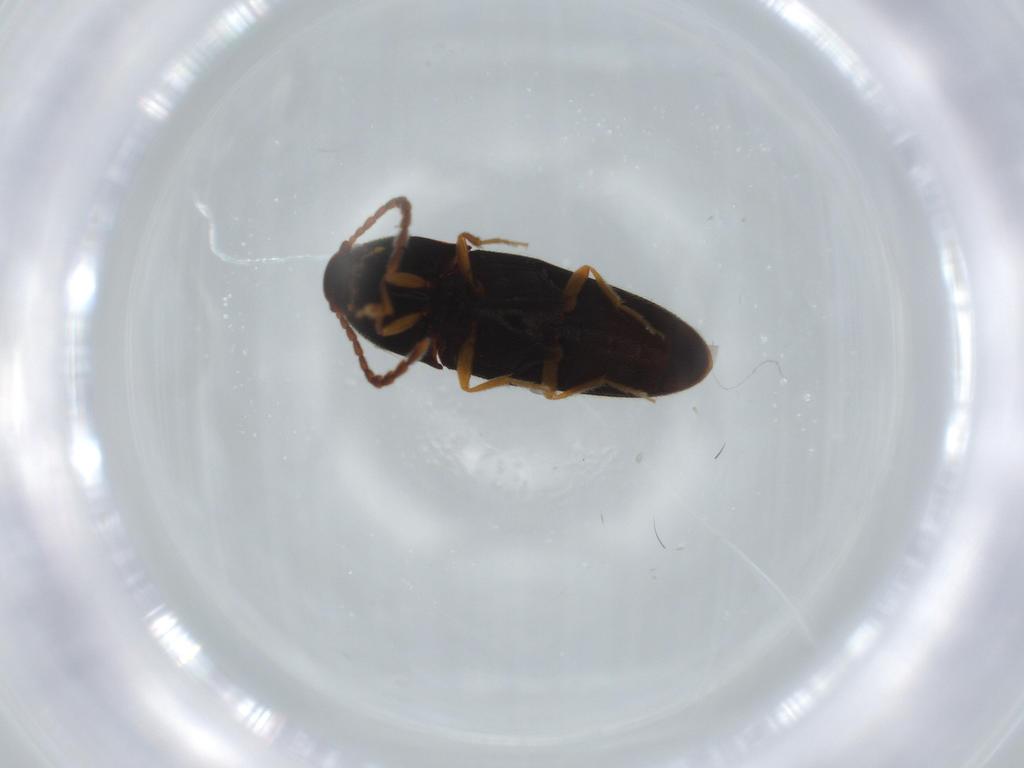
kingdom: Animalia
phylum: Arthropoda
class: Insecta
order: Coleoptera
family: Elateridae
